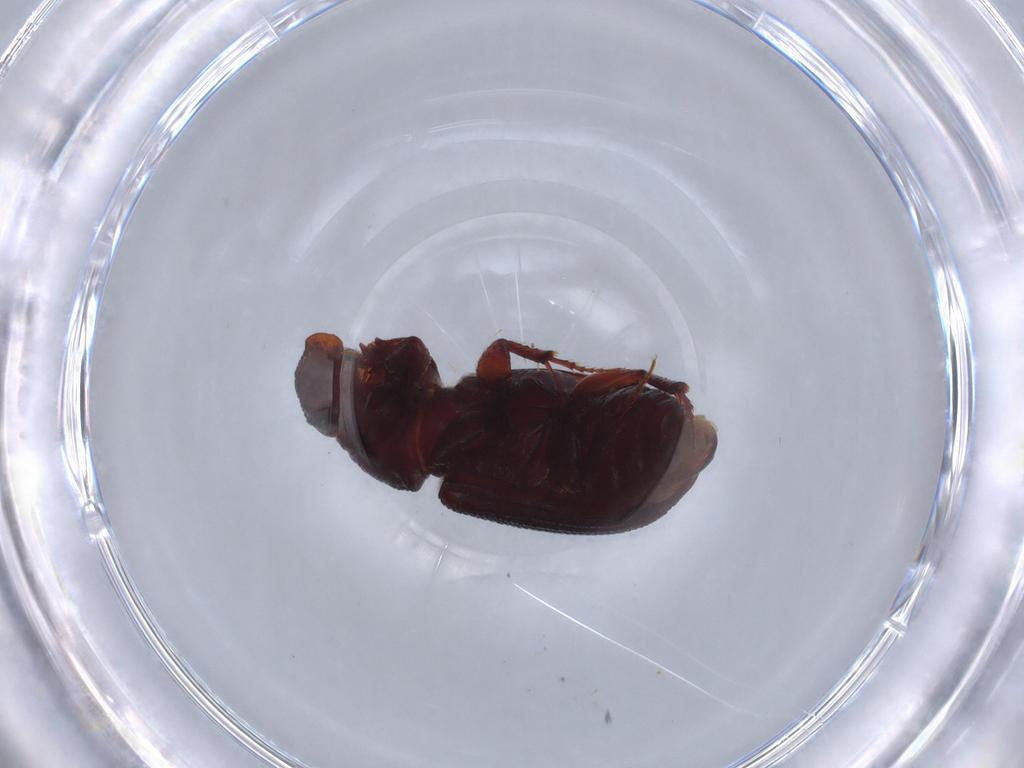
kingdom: Animalia
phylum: Arthropoda
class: Insecta
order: Coleoptera
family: Scarabaeidae
